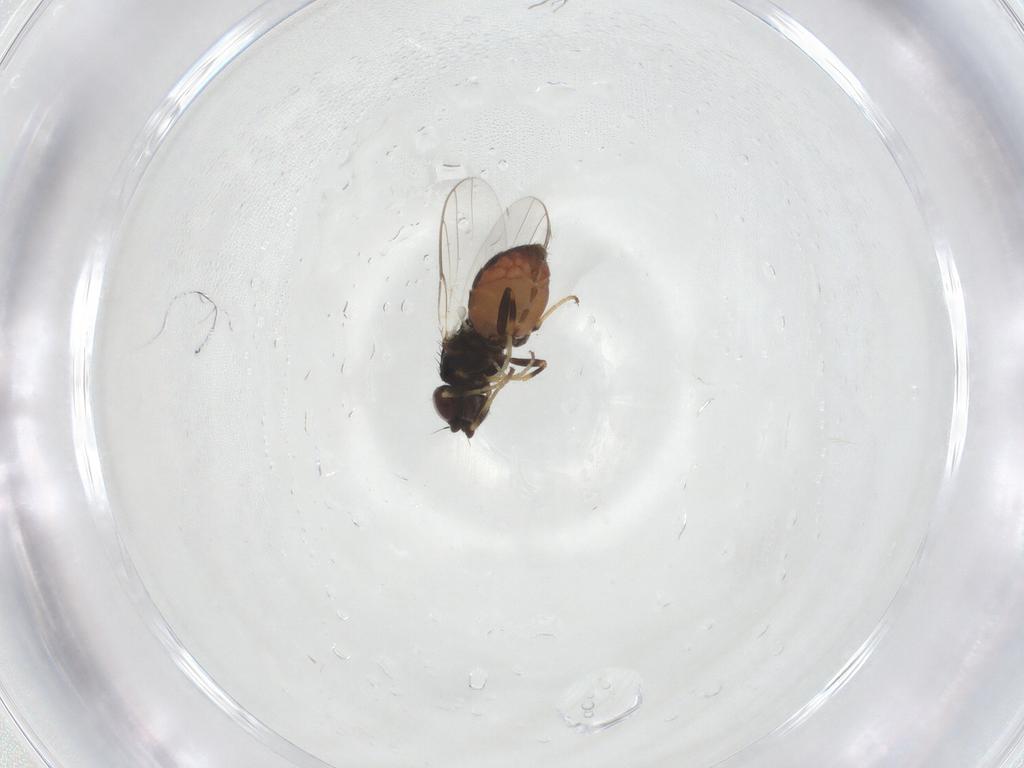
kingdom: Animalia
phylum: Arthropoda
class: Insecta
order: Diptera
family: Chloropidae
